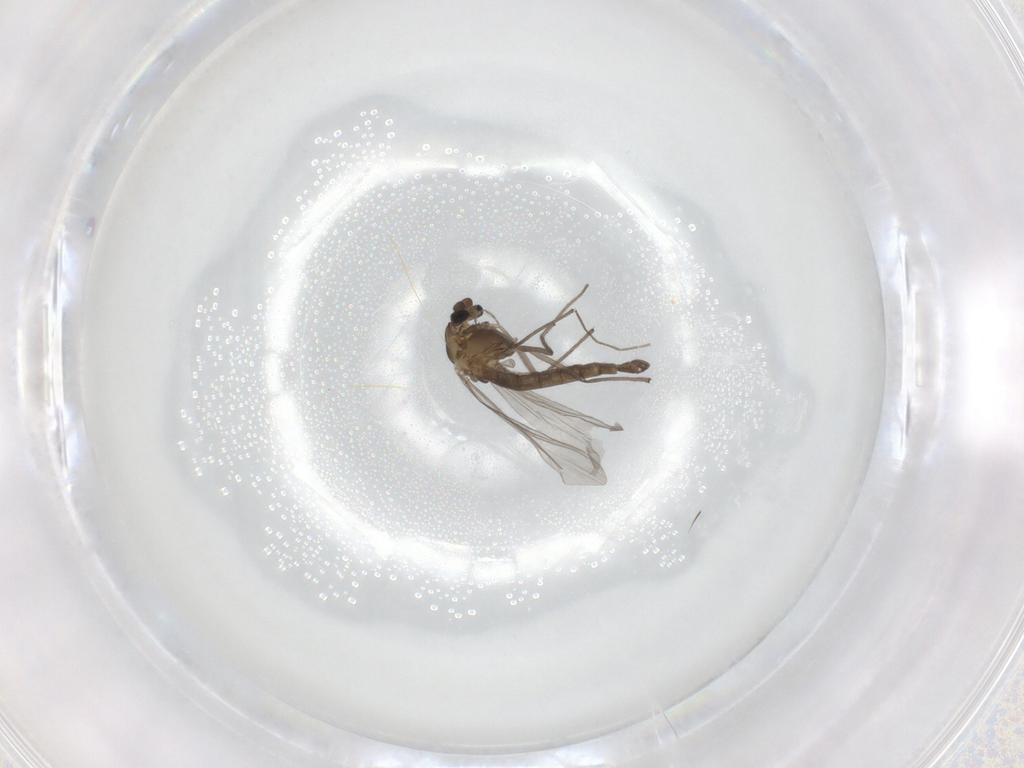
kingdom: Animalia
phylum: Arthropoda
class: Insecta
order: Diptera
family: Chironomidae
